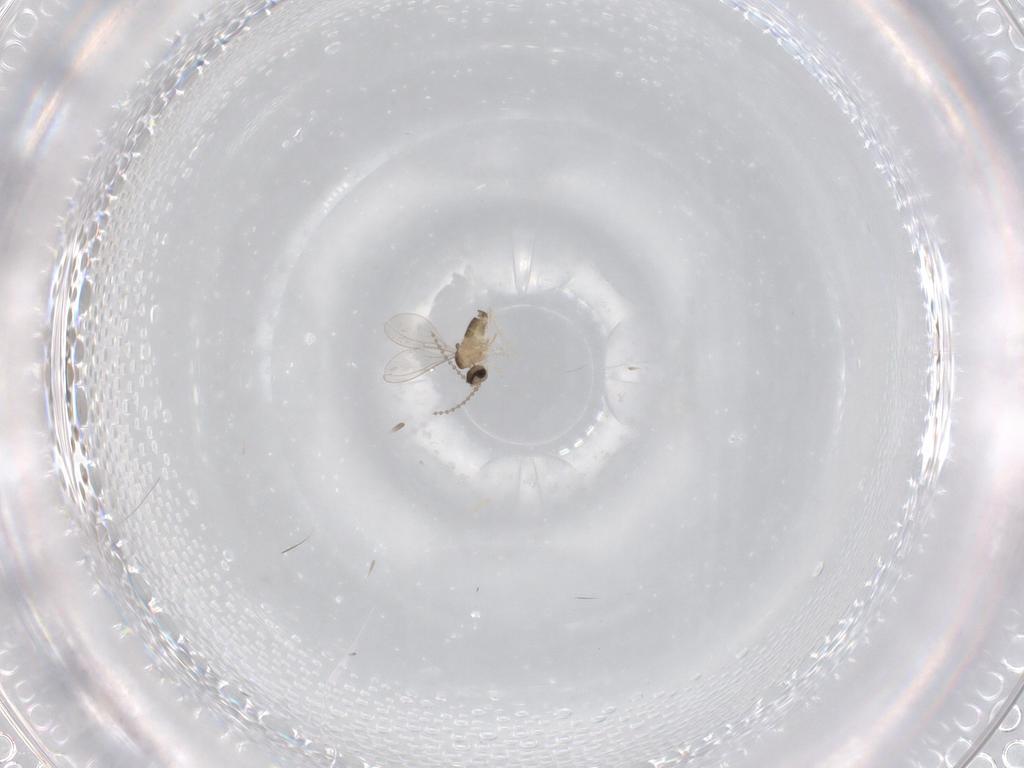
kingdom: Animalia
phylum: Arthropoda
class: Insecta
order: Diptera
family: Cecidomyiidae
